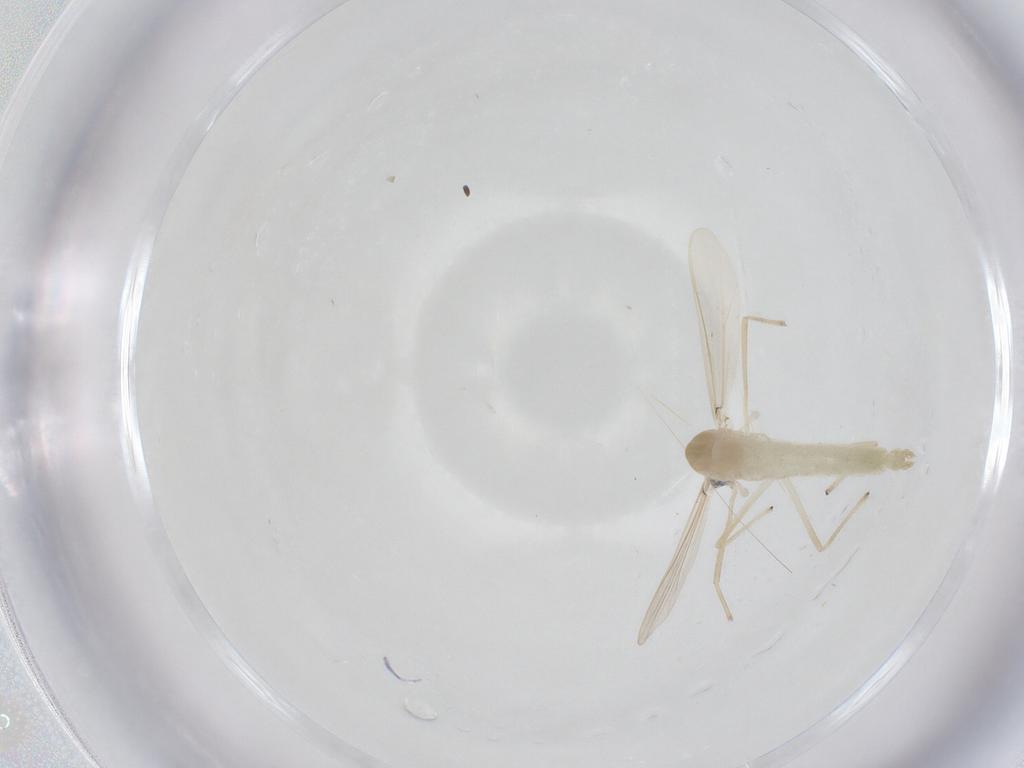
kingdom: Animalia
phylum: Arthropoda
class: Insecta
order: Diptera
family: Chironomidae
